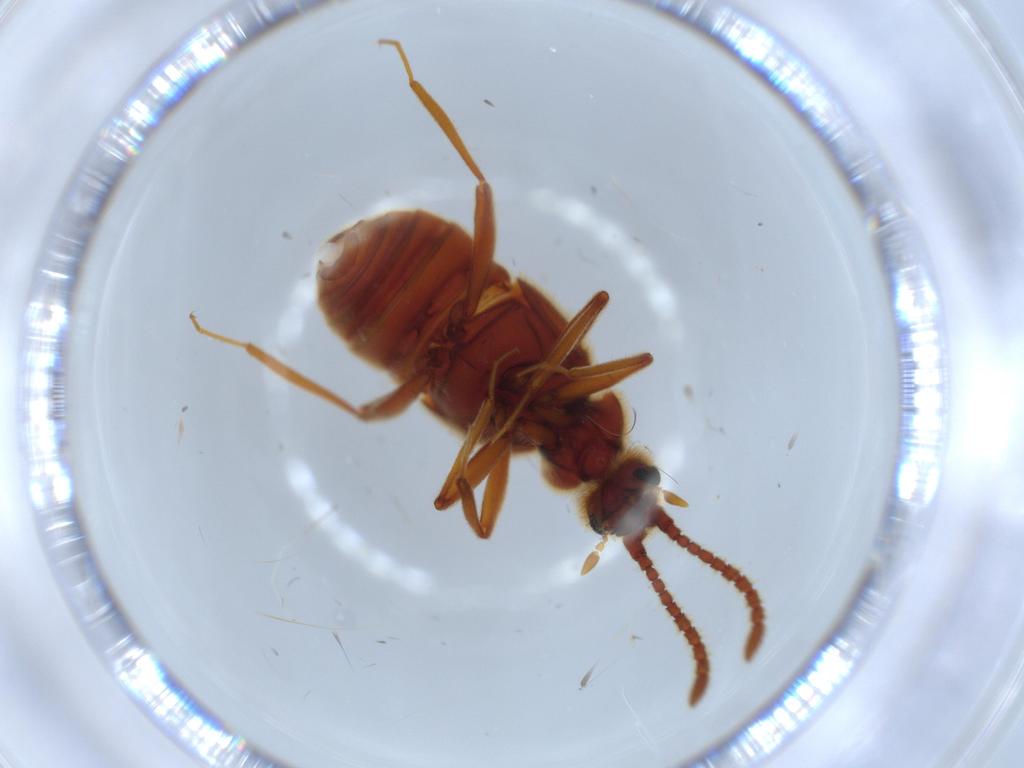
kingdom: Animalia
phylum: Arthropoda
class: Insecta
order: Coleoptera
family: Chrysomelidae
